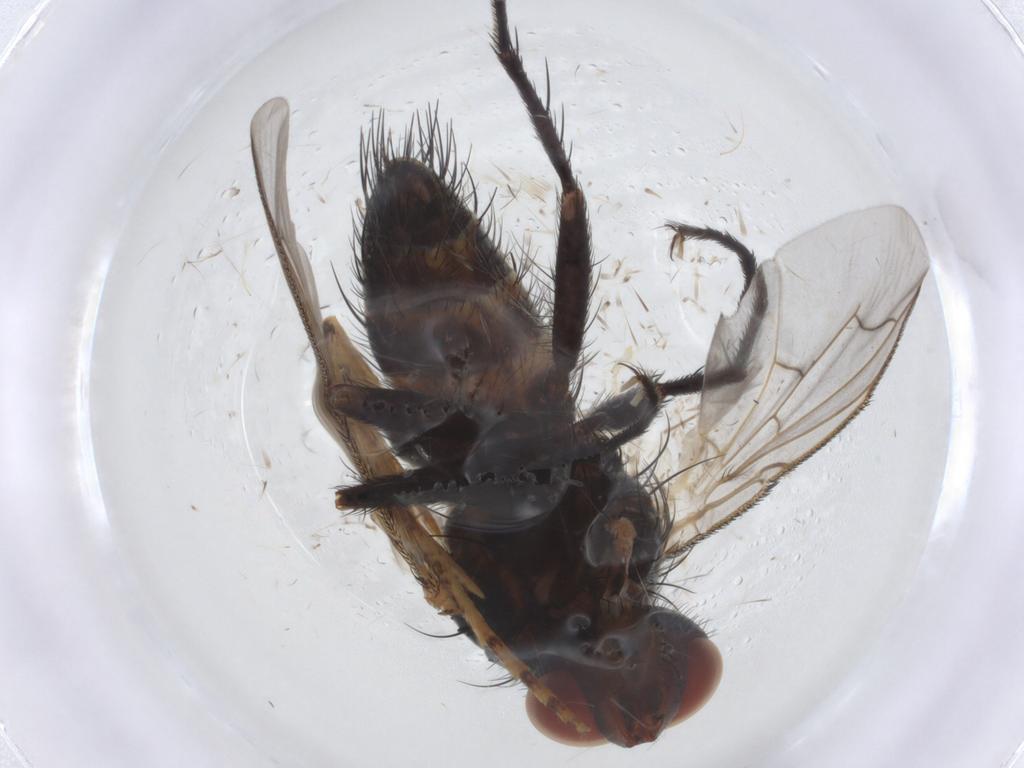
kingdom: Animalia
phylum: Arthropoda
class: Insecta
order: Diptera
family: Tachinidae
